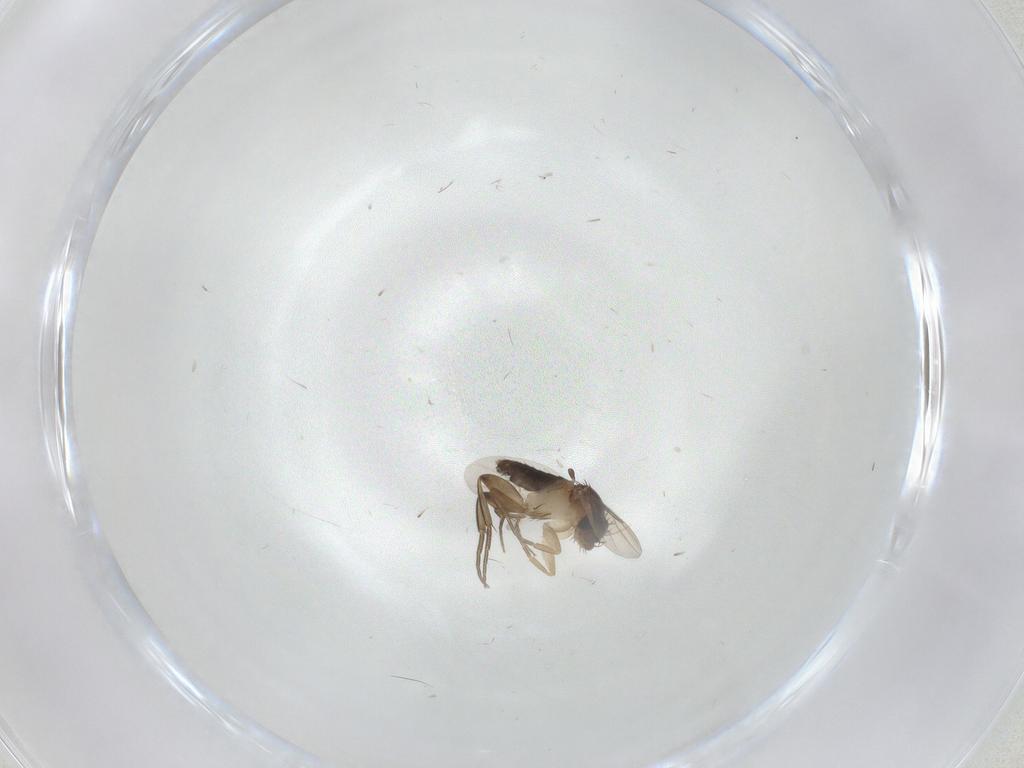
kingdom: Animalia
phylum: Arthropoda
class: Insecta
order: Diptera
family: Phoridae
